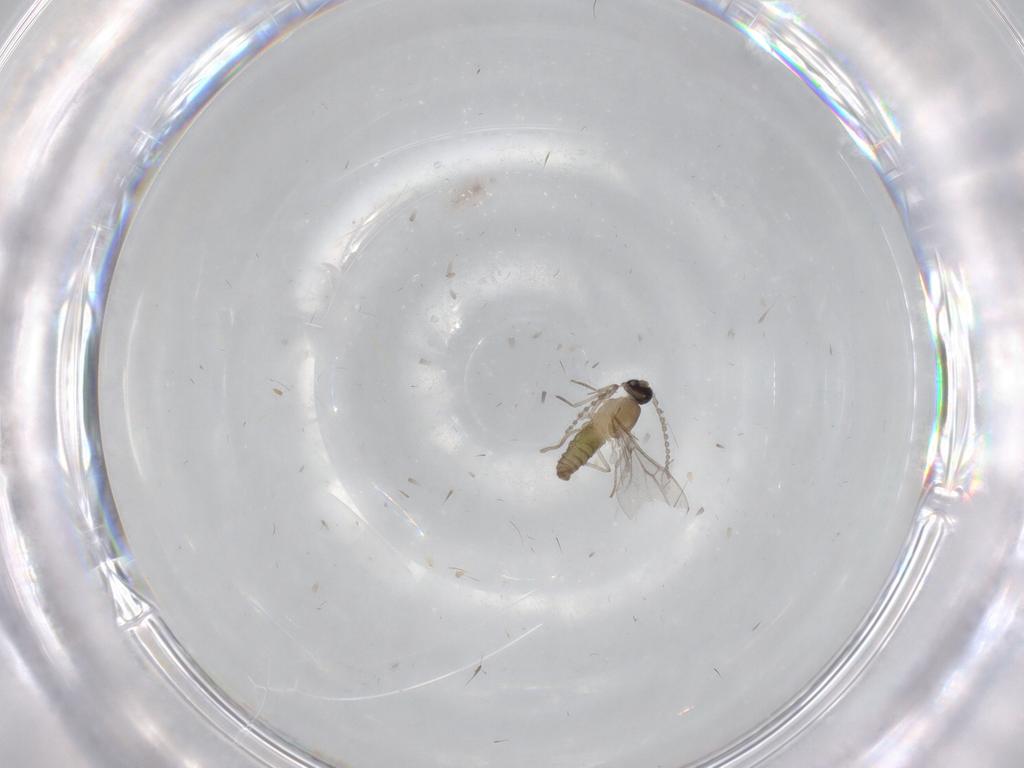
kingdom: Animalia
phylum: Arthropoda
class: Insecta
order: Diptera
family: Cecidomyiidae
